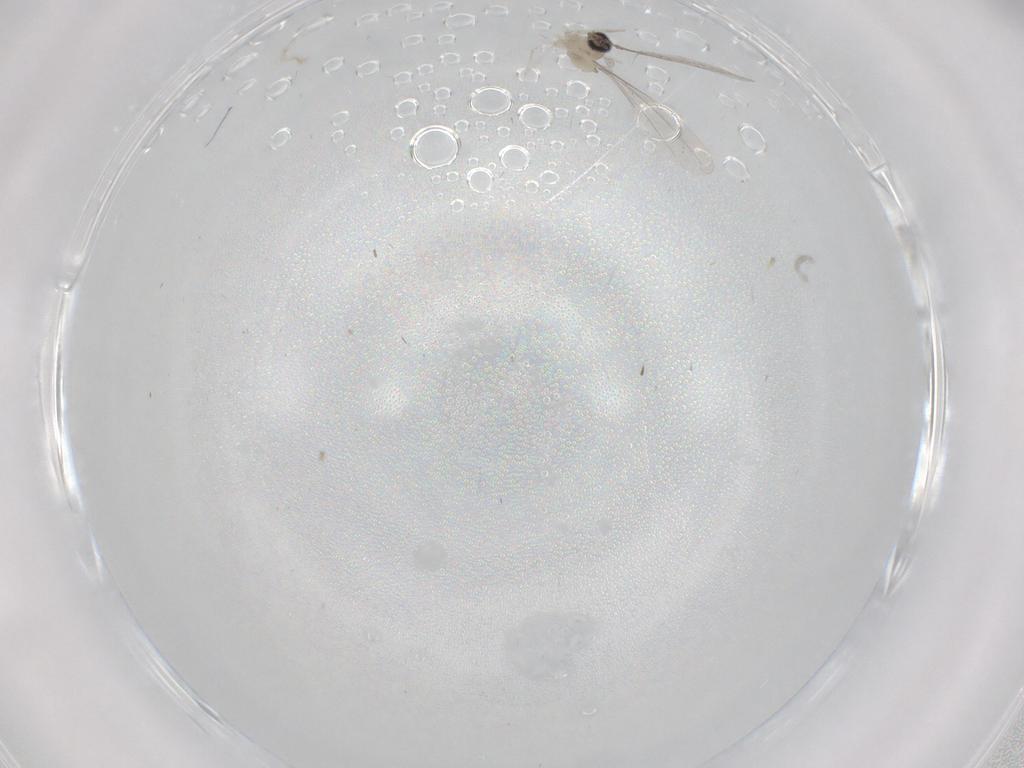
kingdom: Animalia
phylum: Arthropoda
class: Insecta
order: Diptera
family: Cecidomyiidae
